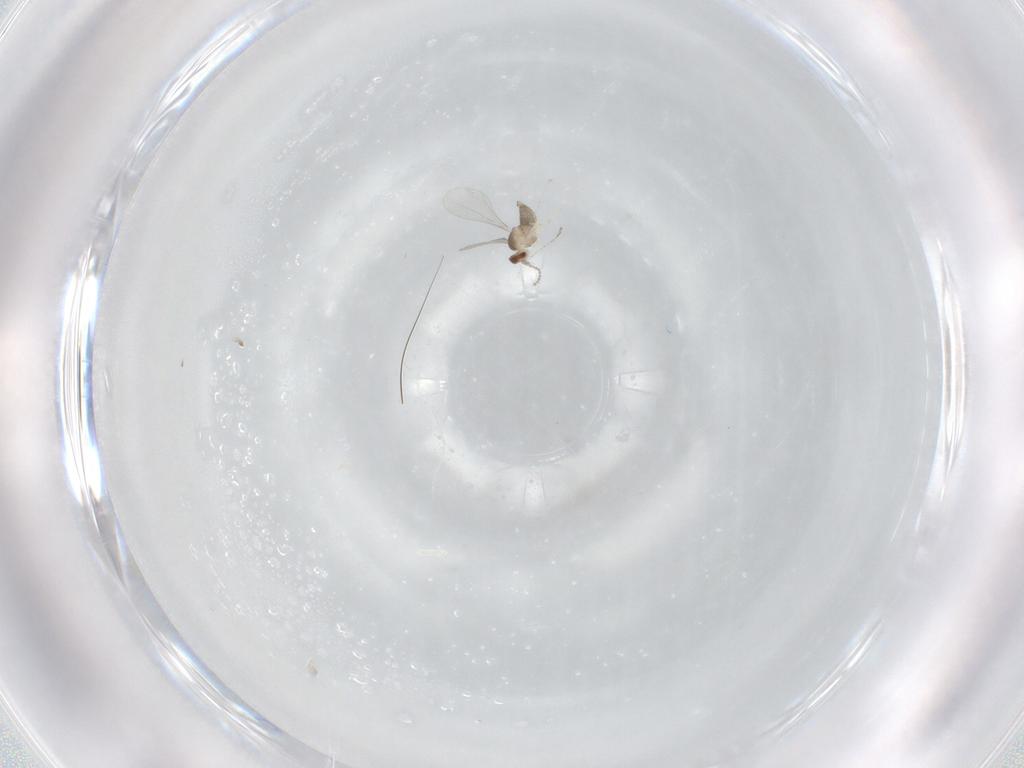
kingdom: Animalia
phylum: Arthropoda
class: Insecta
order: Diptera
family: Cecidomyiidae
